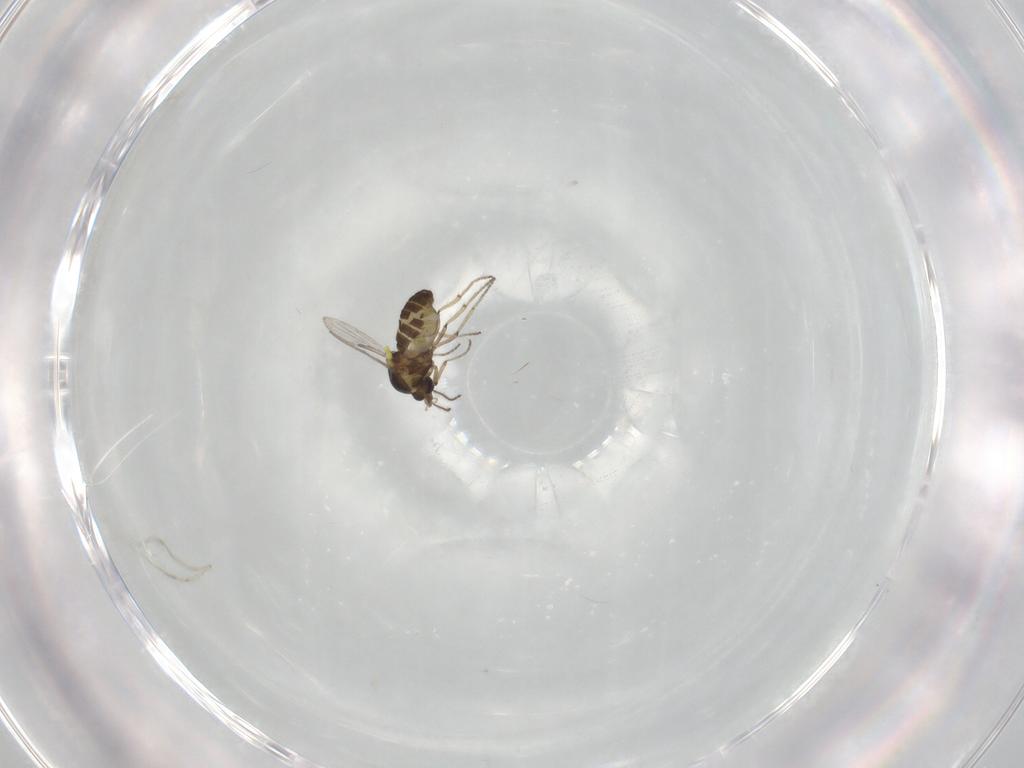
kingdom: Animalia
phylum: Arthropoda
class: Insecta
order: Diptera
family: Ceratopogonidae
